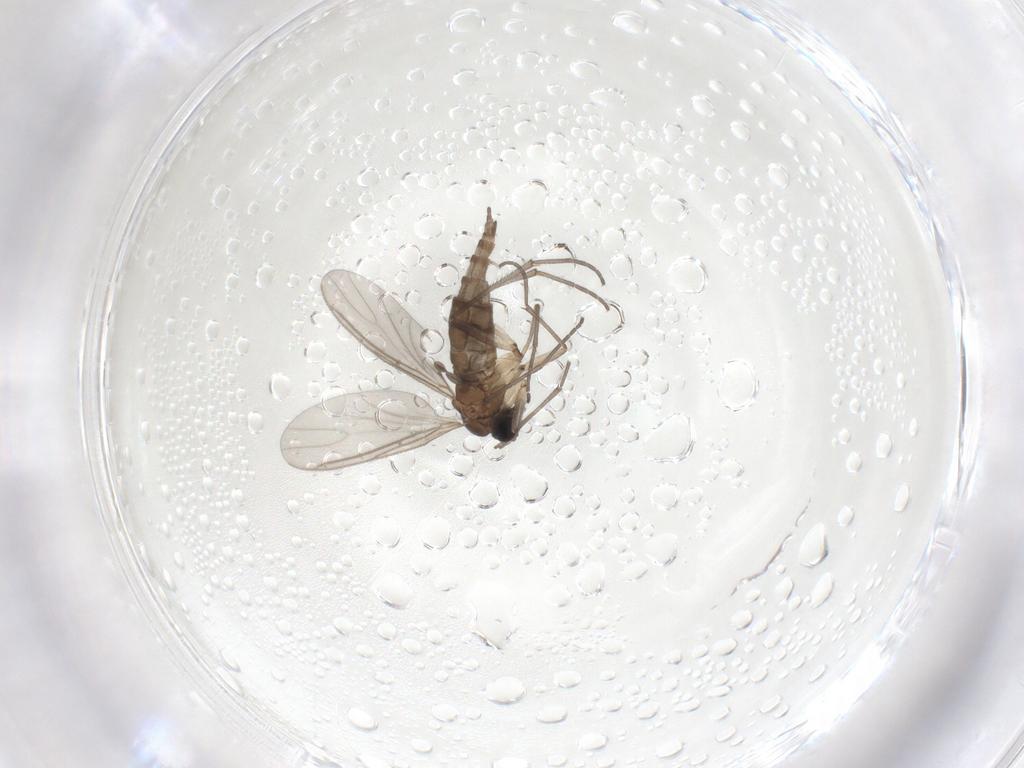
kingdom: Animalia
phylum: Arthropoda
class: Insecta
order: Diptera
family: Sciaridae
